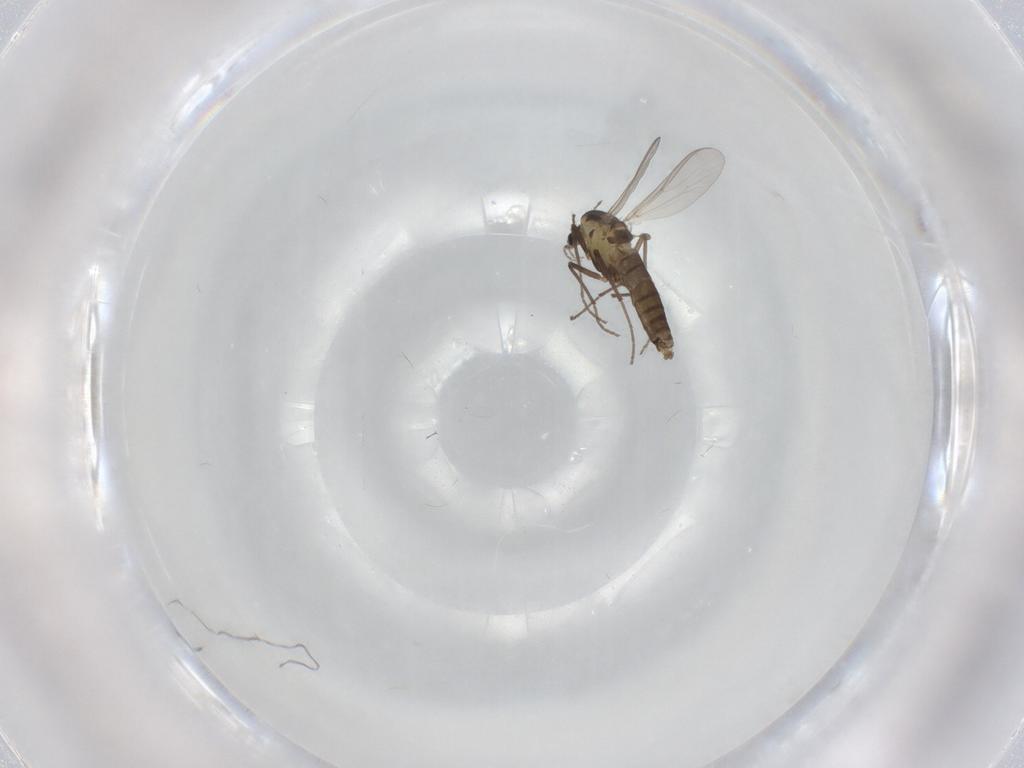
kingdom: Animalia
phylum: Arthropoda
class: Insecta
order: Diptera
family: Chironomidae
